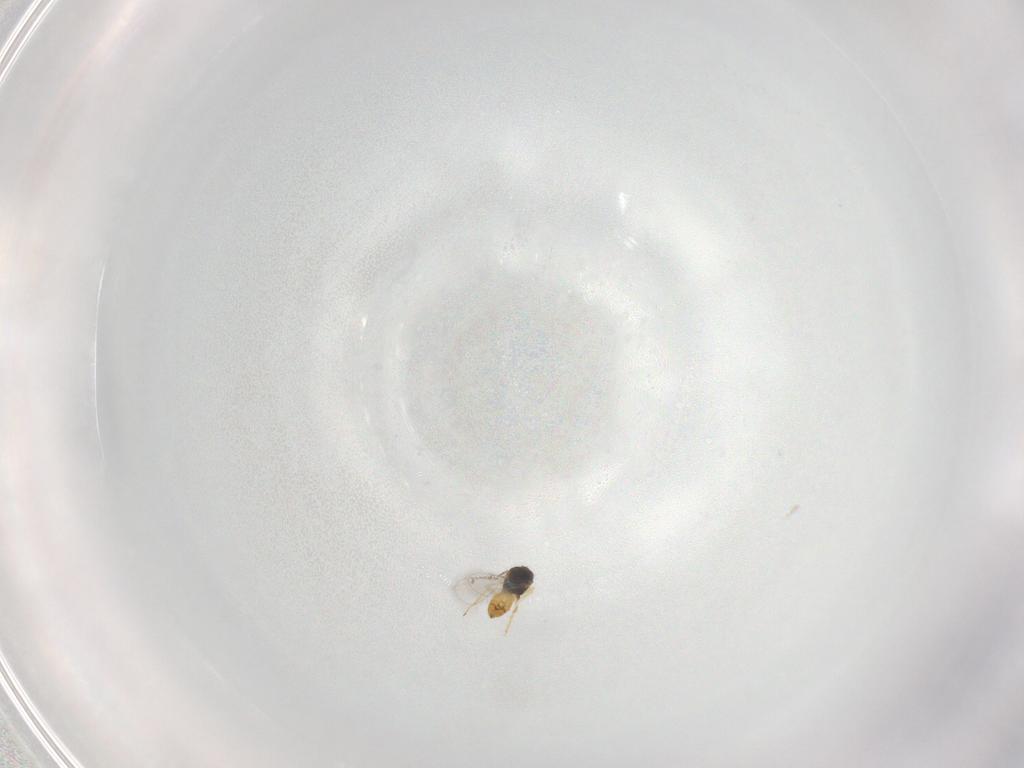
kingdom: Animalia
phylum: Arthropoda
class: Insecta
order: Hymenoptera
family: Eulophidae
